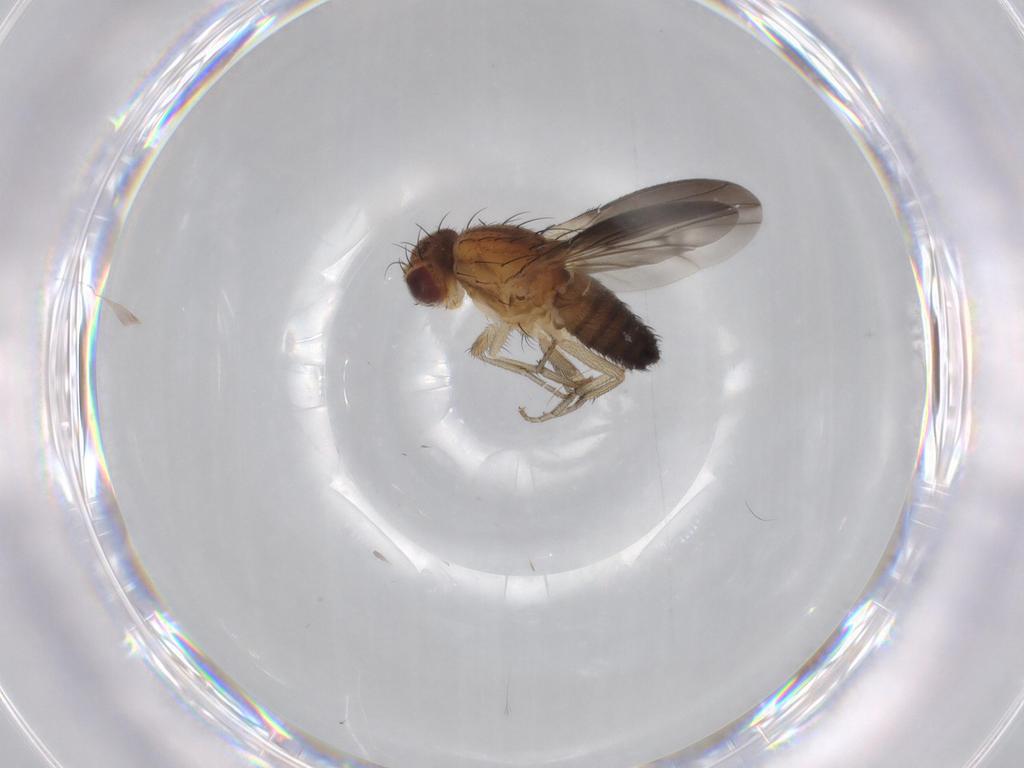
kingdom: Animalia
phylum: Arthropoda
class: Insecta
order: Diptera
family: Heleomyzidae
